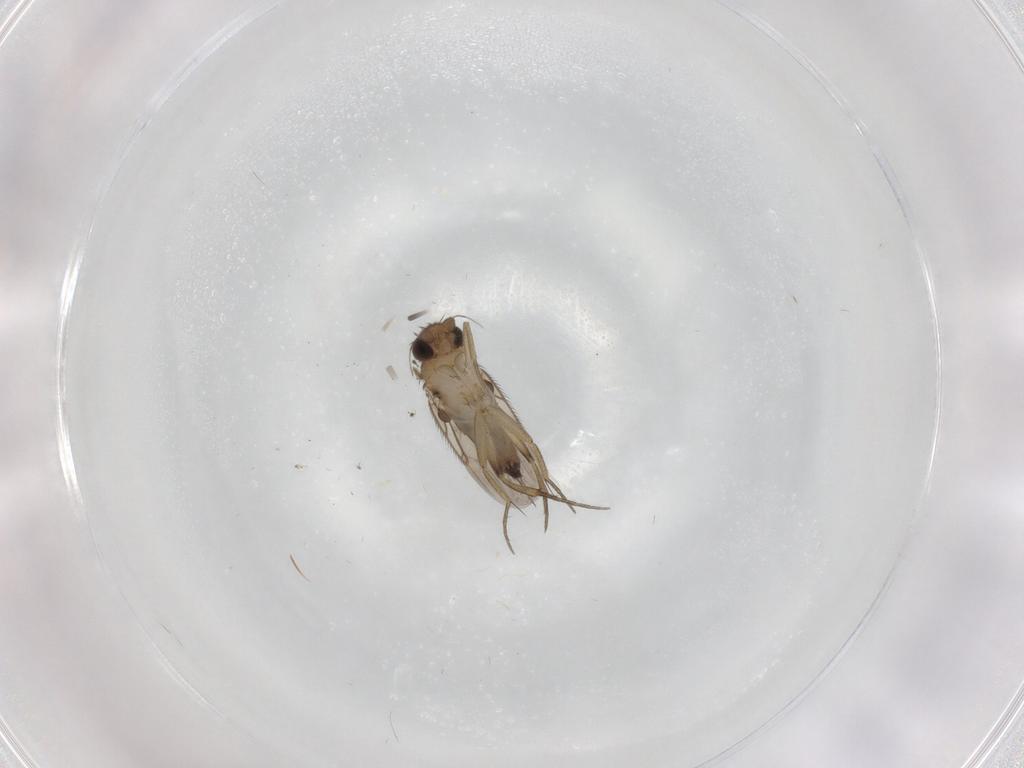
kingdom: Animalia
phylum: Arthropoda
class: Insecta
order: Diptera
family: Phoridae
